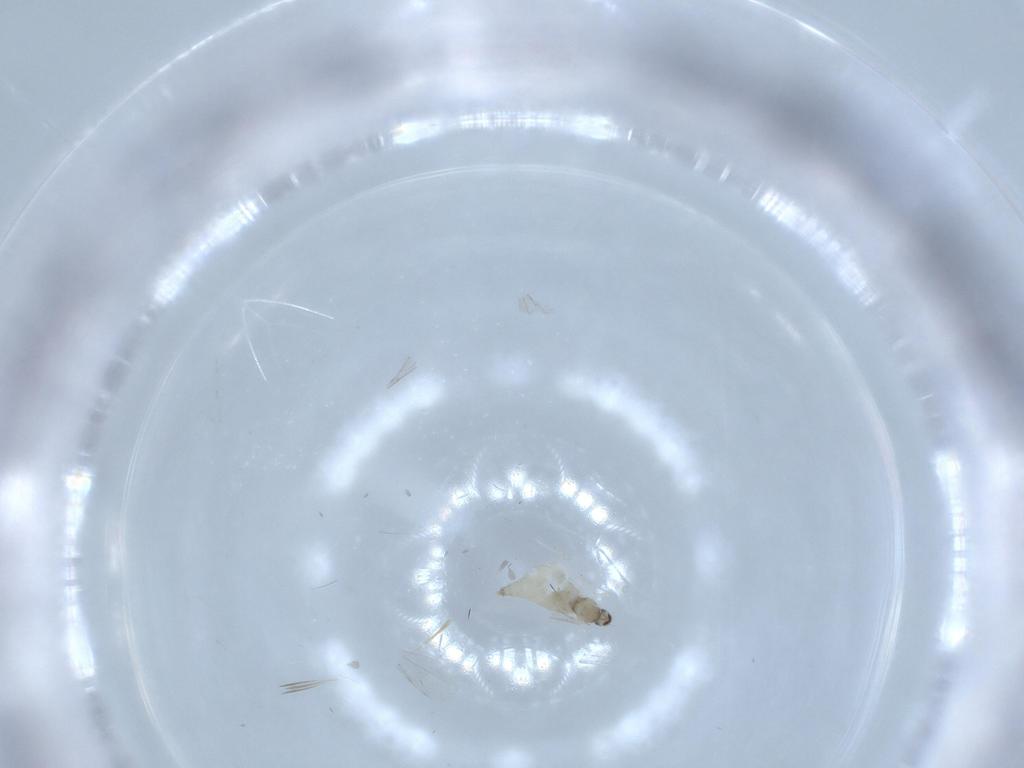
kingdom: Animalia
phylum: Arthropoda
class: Insecta
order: Diptera
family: Cecidomyiidae
